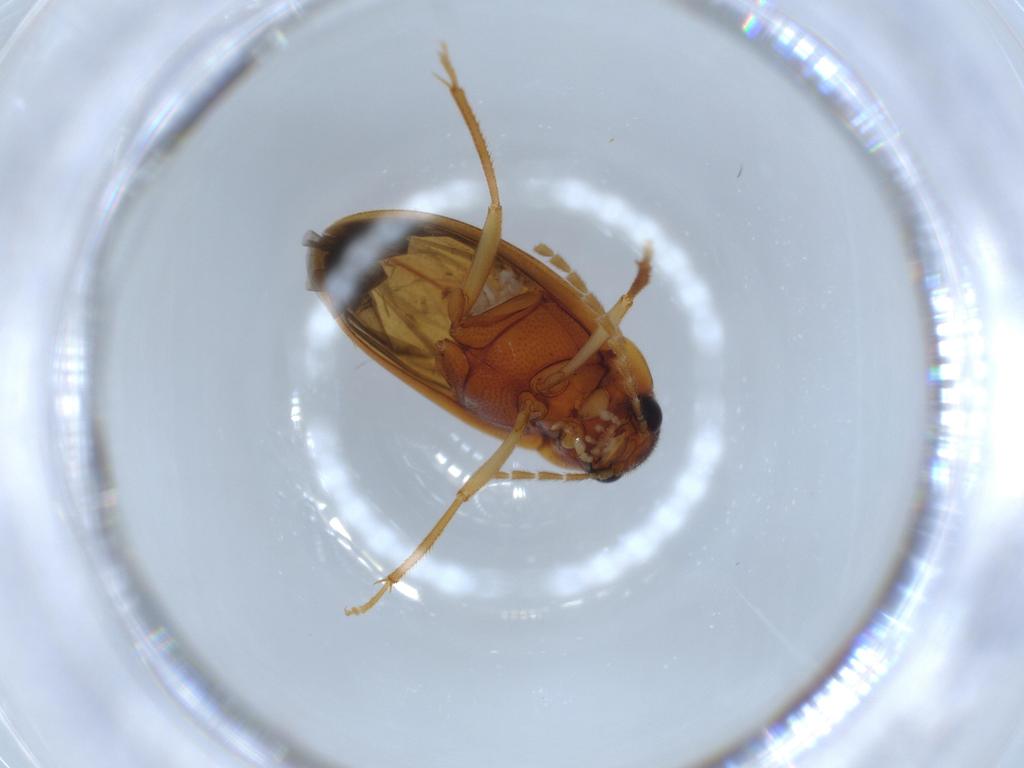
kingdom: Animalia
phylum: Arthropoda
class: Insecta
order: Coleoptera
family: Ptilodactylidae
